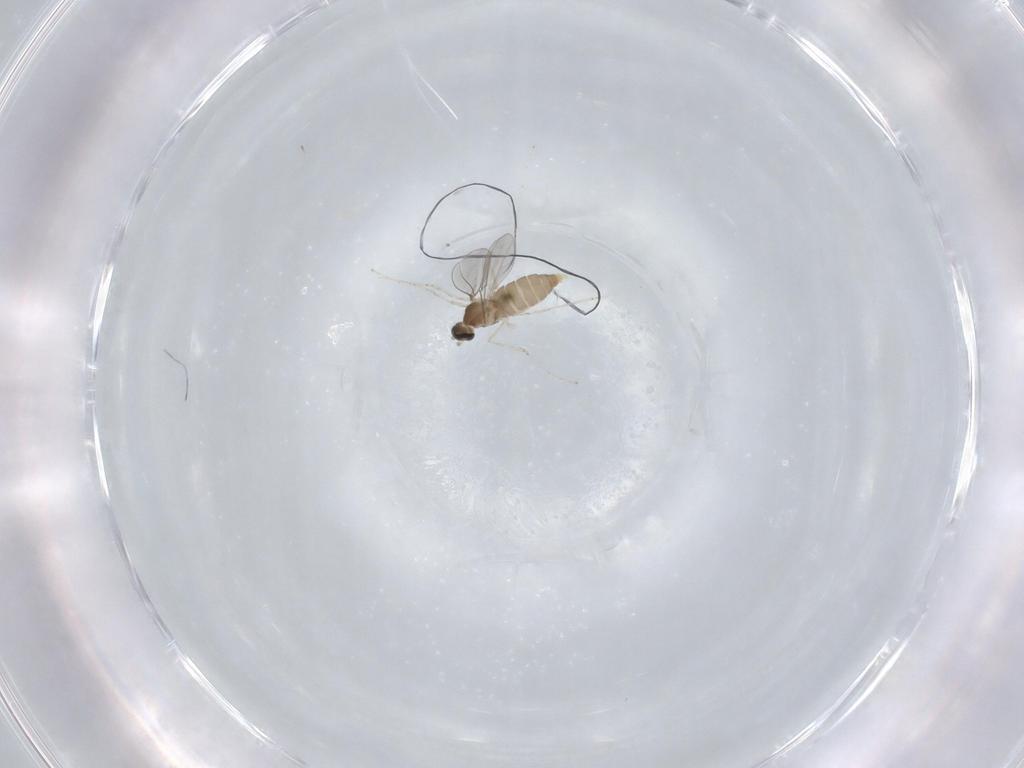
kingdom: Animalia
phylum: Arthropoda
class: Insecta
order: Diptera
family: Cecidomyiidae
